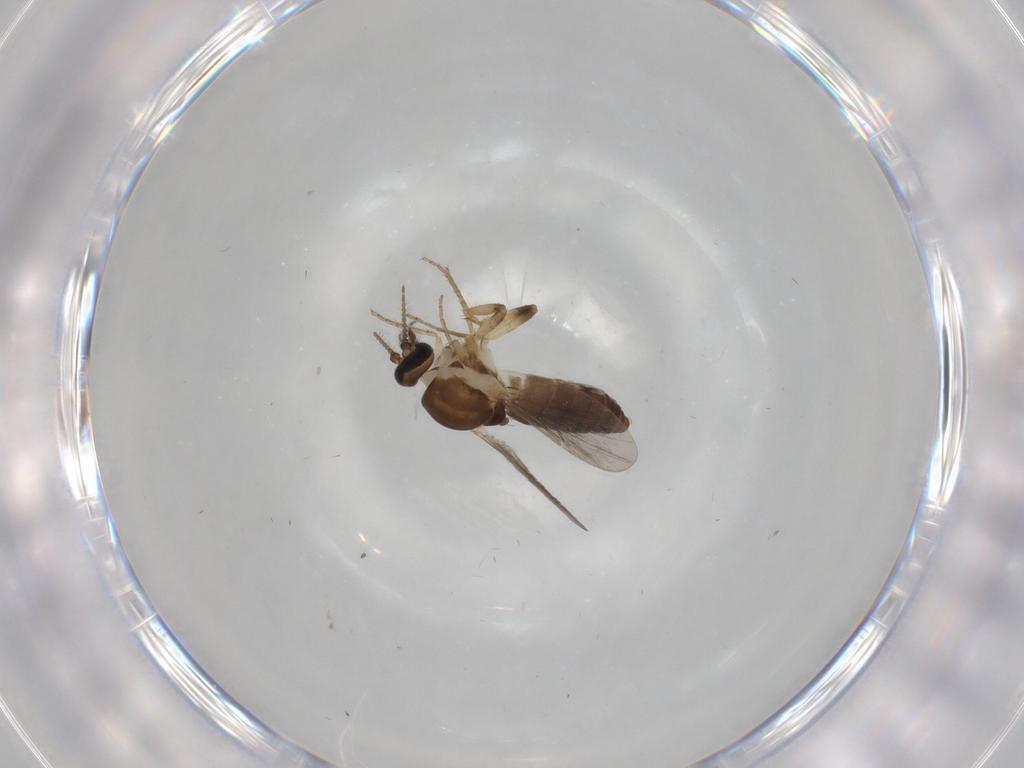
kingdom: Animalia
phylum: Arthropoda
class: Insecta
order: Diptera
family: Ceratopogonidae
